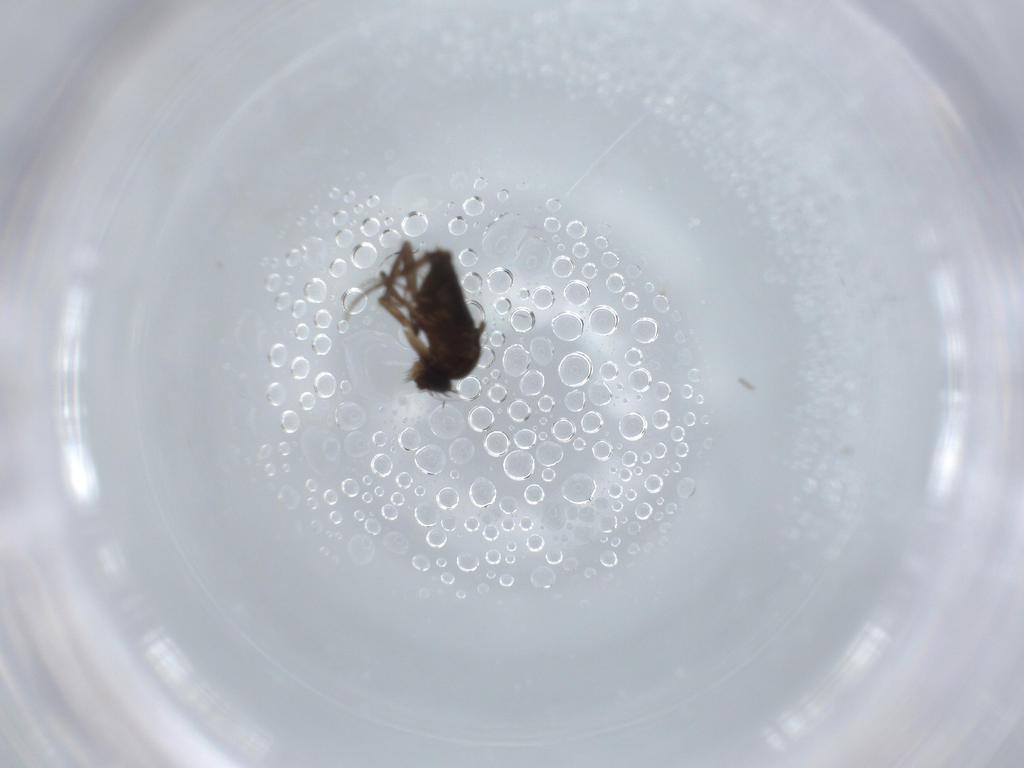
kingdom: Animalia
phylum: Arthropoda
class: Insecta
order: Diptera
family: Phoridae
